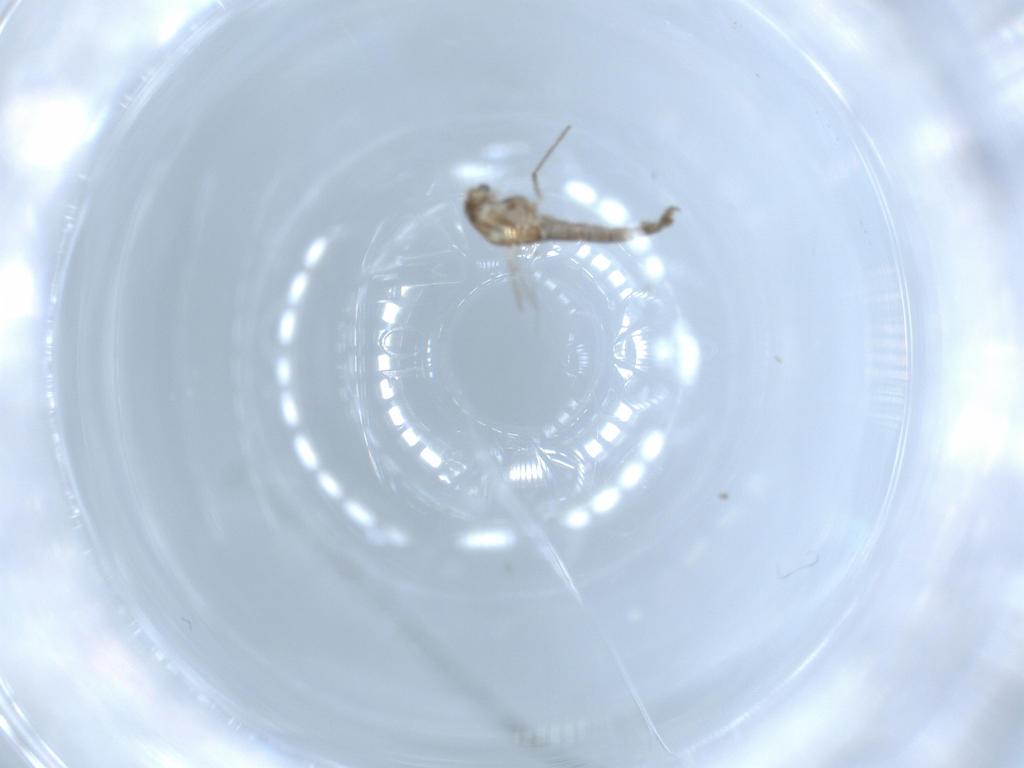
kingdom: Animalia
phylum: Arthropoda
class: Insecta
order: Diptera
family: Cecidomyiidae
